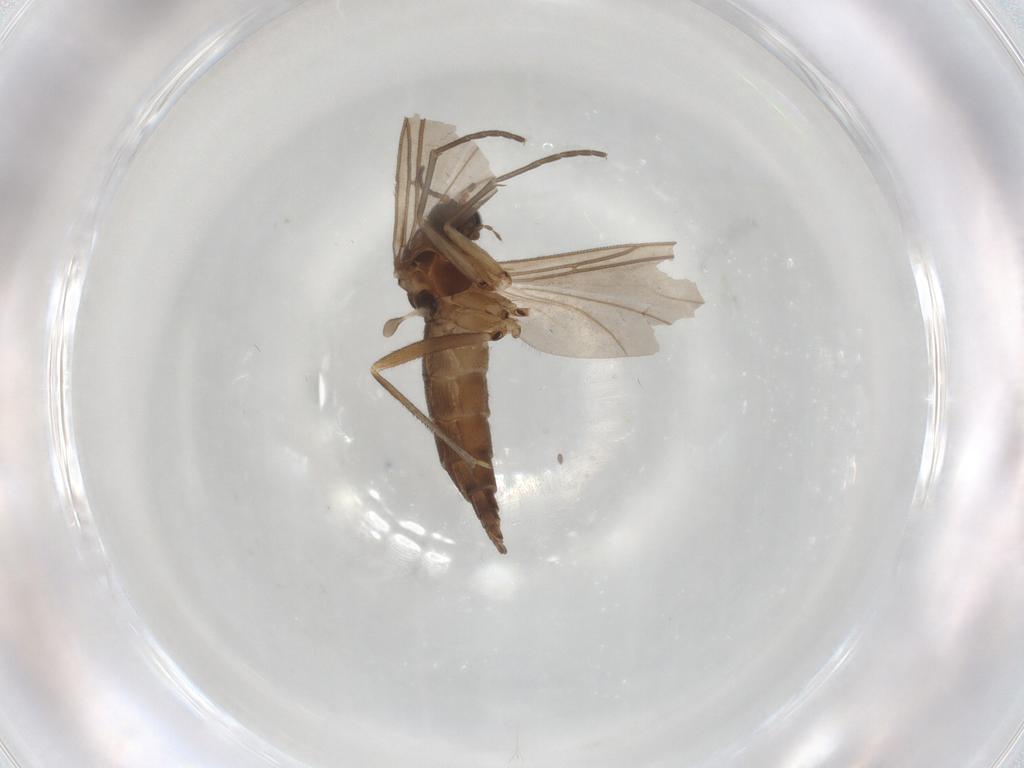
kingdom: Animalia
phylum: Arthropoda
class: Insecta
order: Diptera
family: Sciaridae
